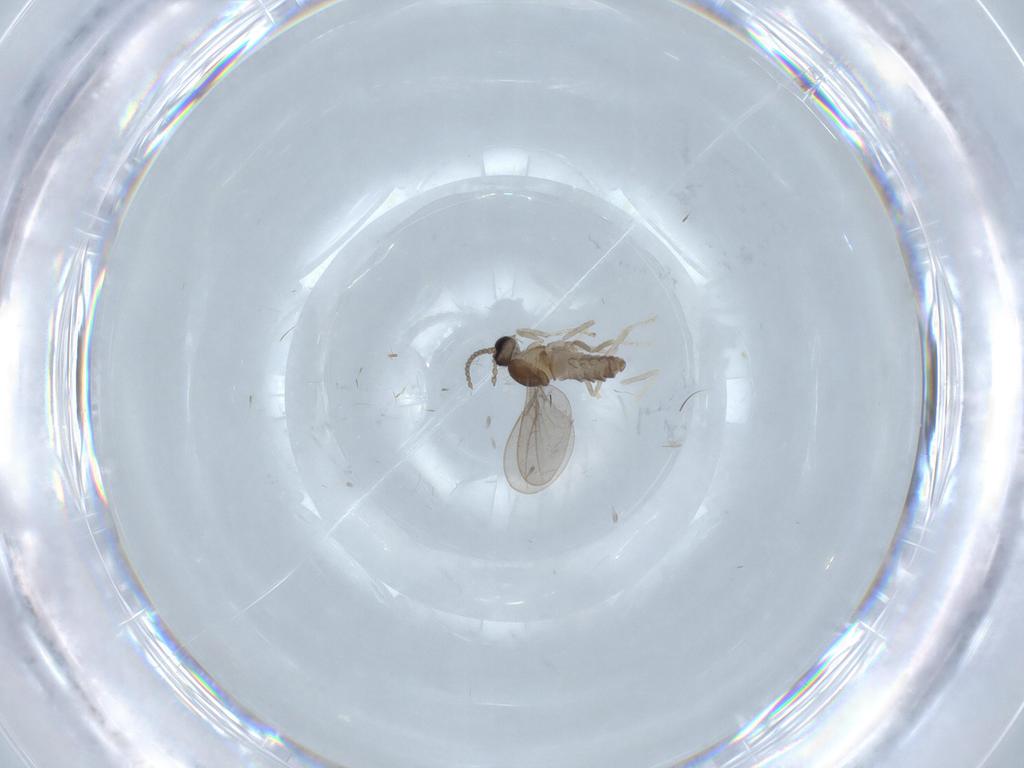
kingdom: Animalia
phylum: Arthropoda
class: Insecta
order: Diptera
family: Cecidomyiidae
